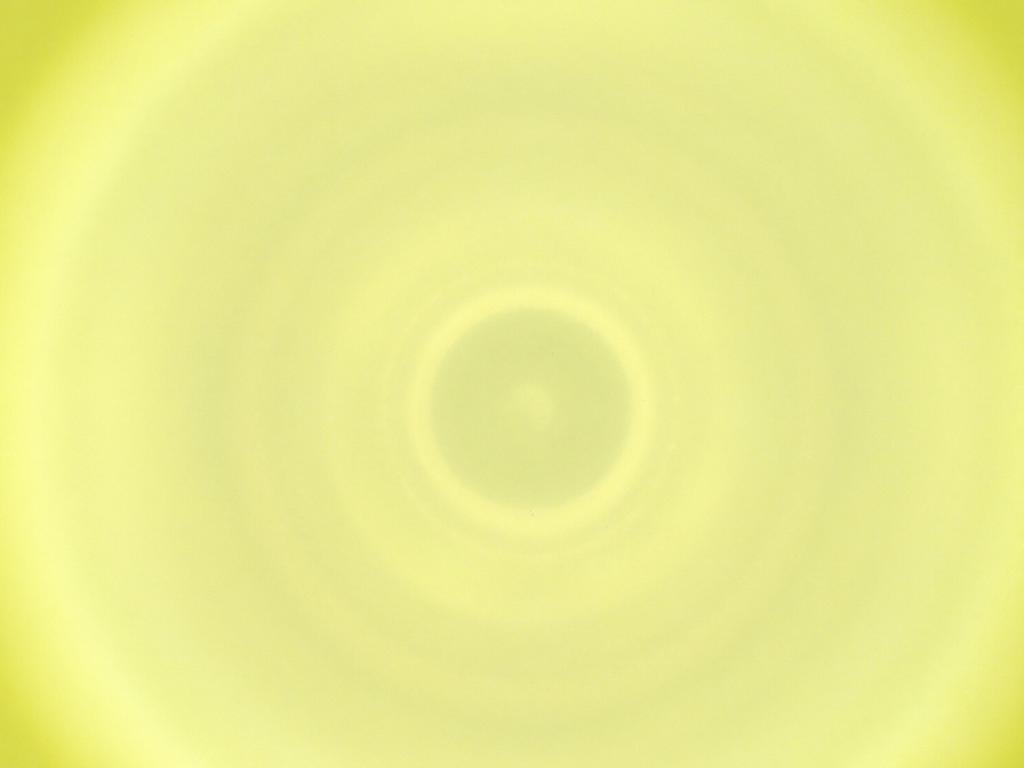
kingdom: Animalia
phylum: Arthropoda
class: Insecta
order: Diptera
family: Cecidomyiidae
